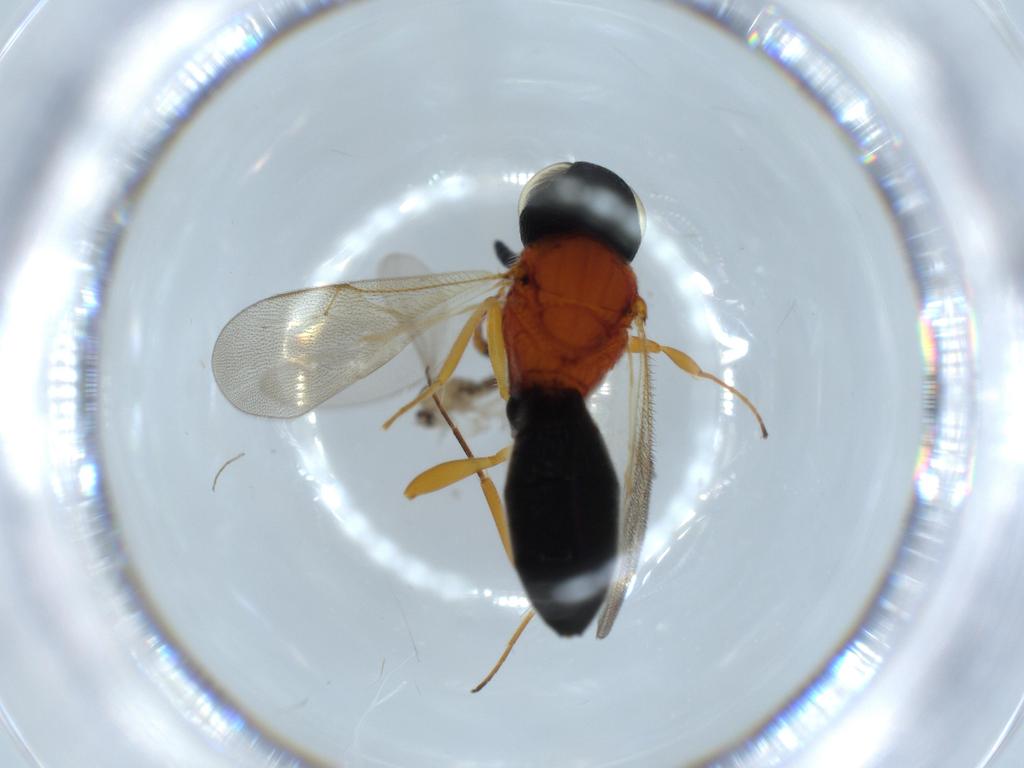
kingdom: Animalia
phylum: Arthropoda
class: Insecta
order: Hymenoptera
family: Scelionidae
